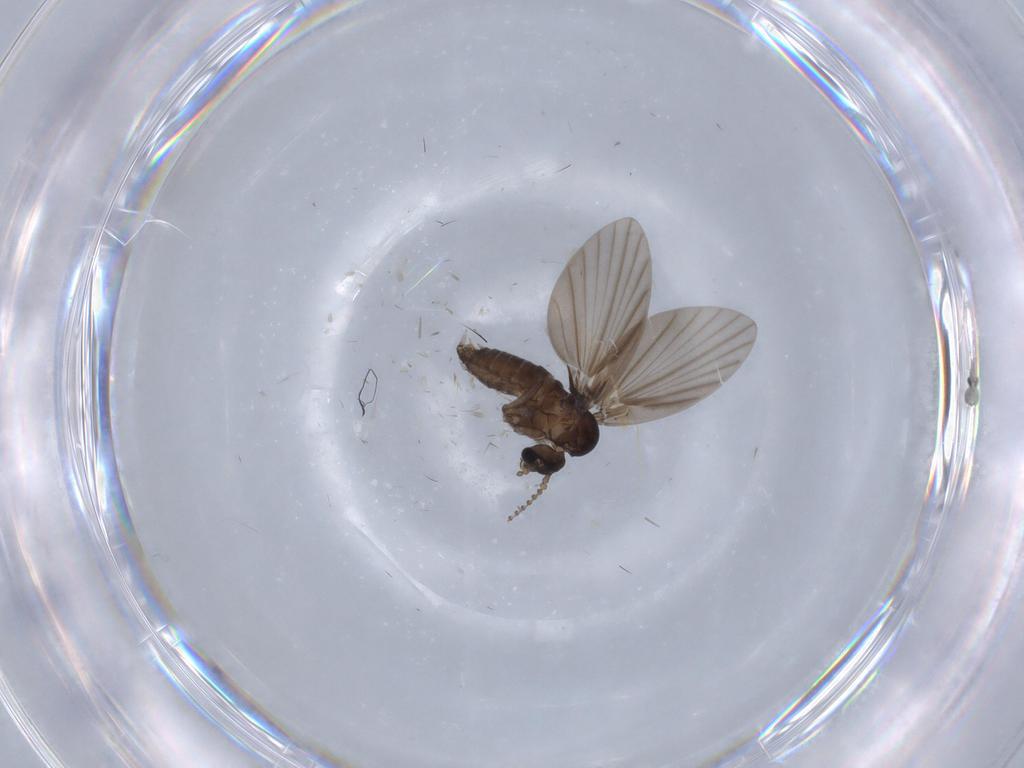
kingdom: Animalia
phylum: Arthropoda
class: Insecta
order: Diptera
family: Psychodidae
